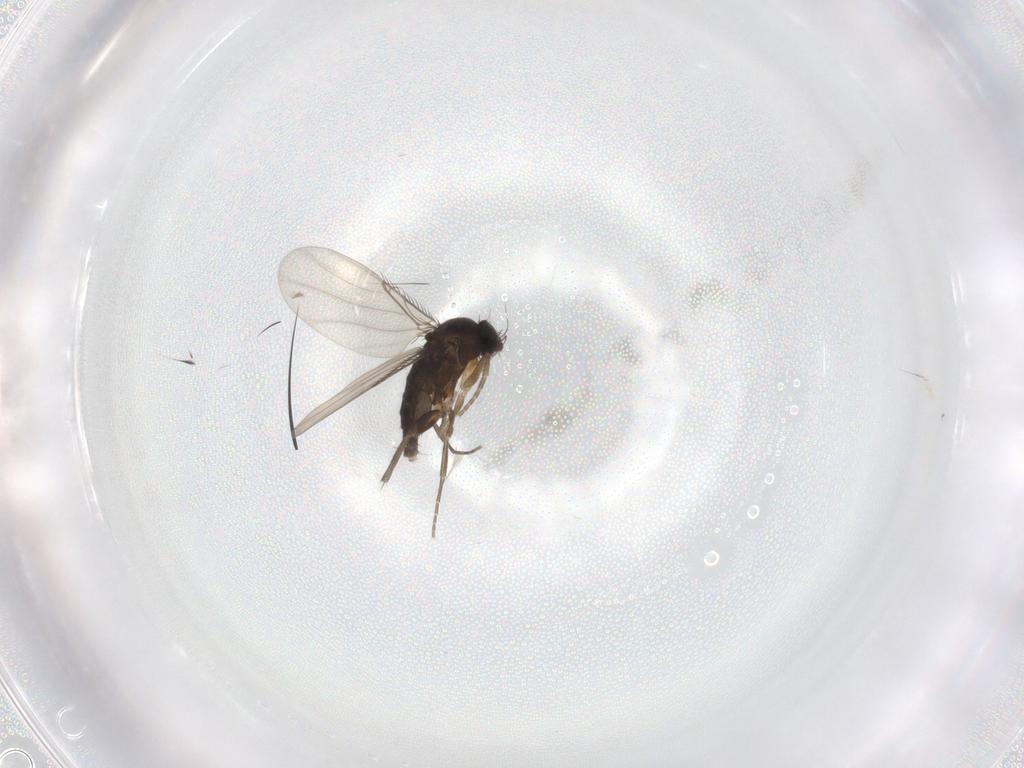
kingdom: Animalia
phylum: Arthropoda
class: Insecta
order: Diptera
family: Phoridae
